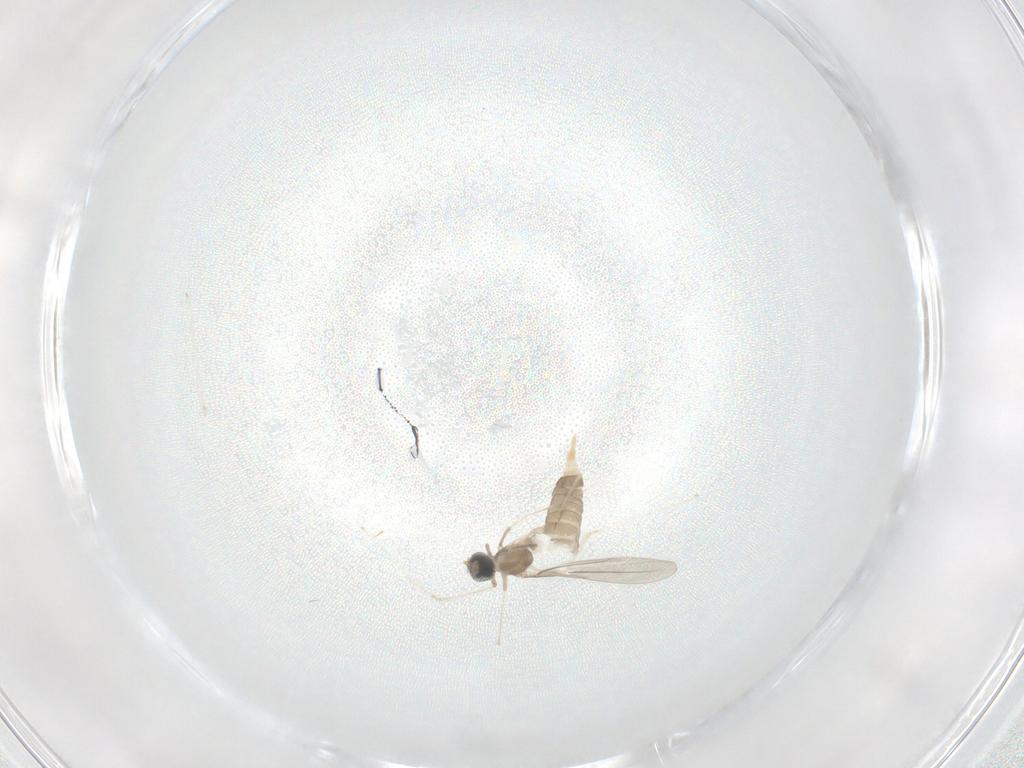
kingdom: Animalia
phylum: Arthropoda
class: Insecta
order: Diptera
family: Cecidomyiidae
